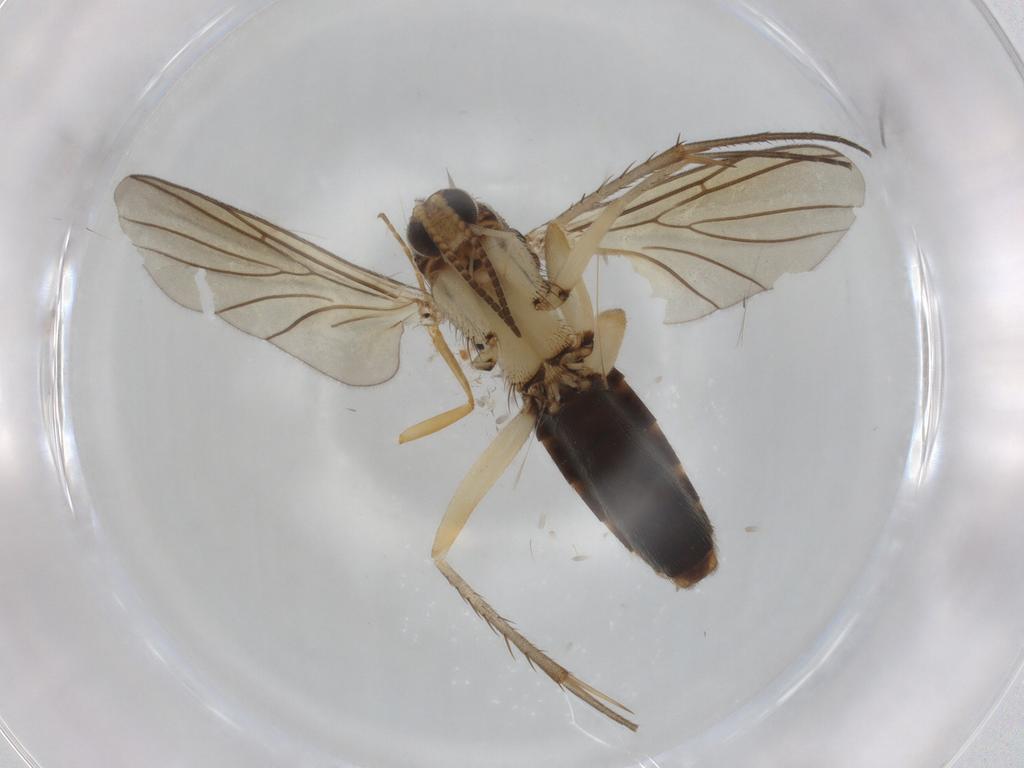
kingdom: Animalia
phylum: Arthropoda
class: Insecta
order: Diptera
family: Mycetophilidae
